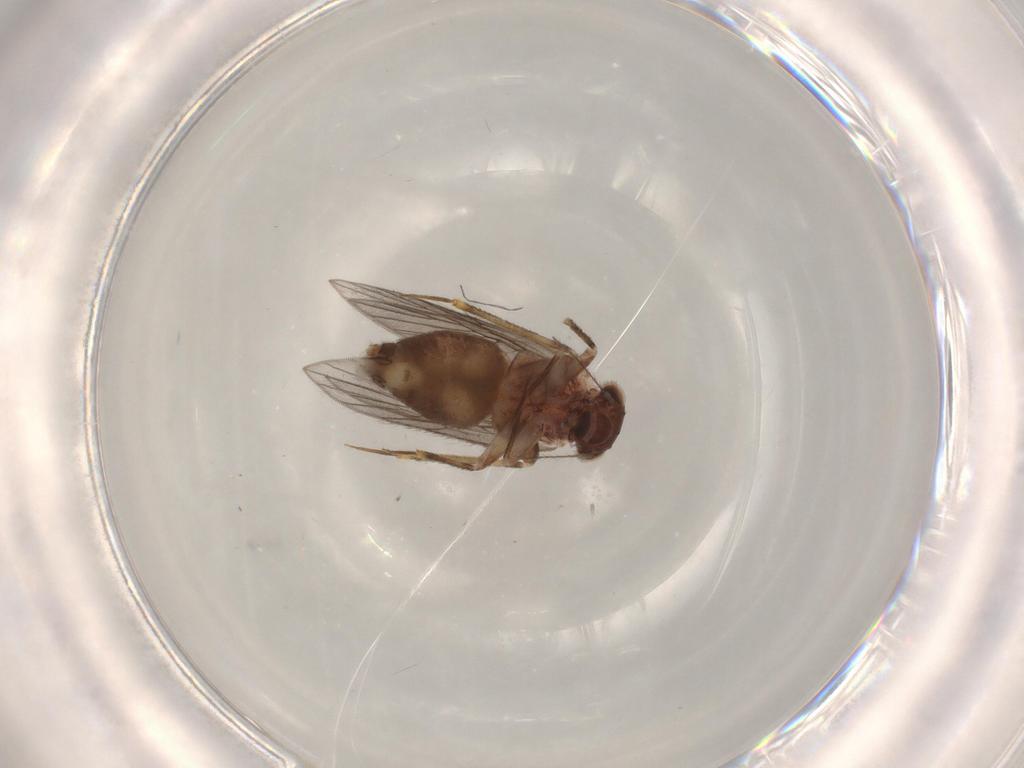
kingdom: Animalia
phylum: Arthropoda
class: Insecta
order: Psocodea
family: Lepidopsocidae
